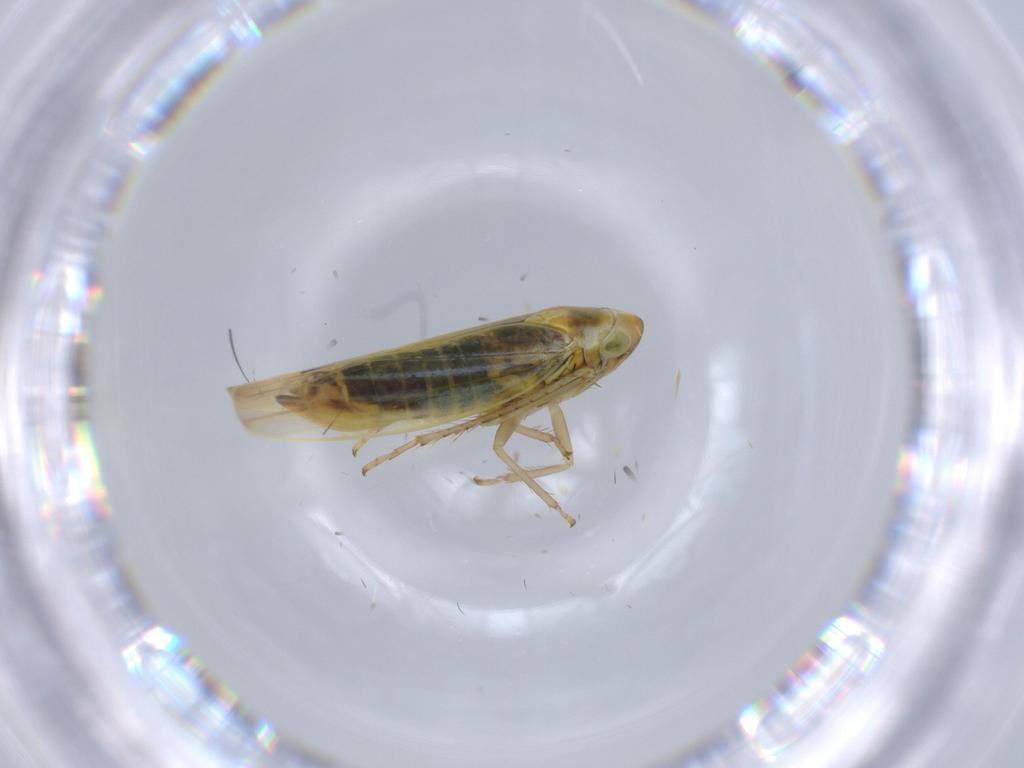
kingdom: Animalia
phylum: Arthropoda
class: Insecta
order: Hemiptera
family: Cicadellidae
